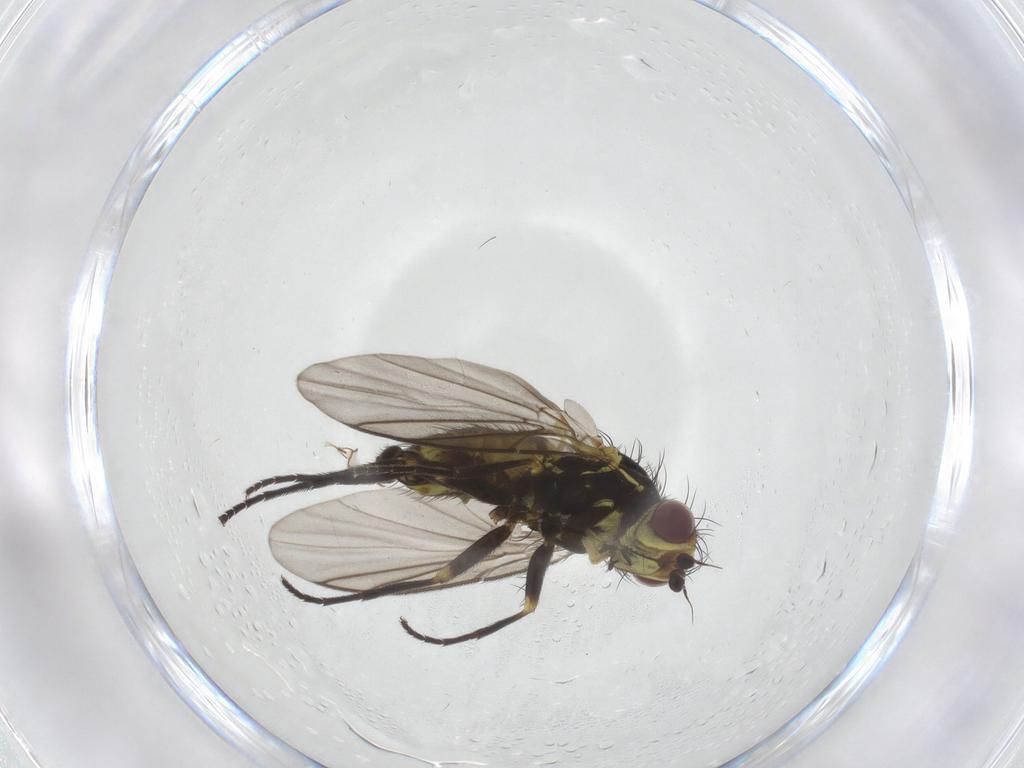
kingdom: Animalia
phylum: Arthropoda
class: Insecta
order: Diptera
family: Agromyzidae
